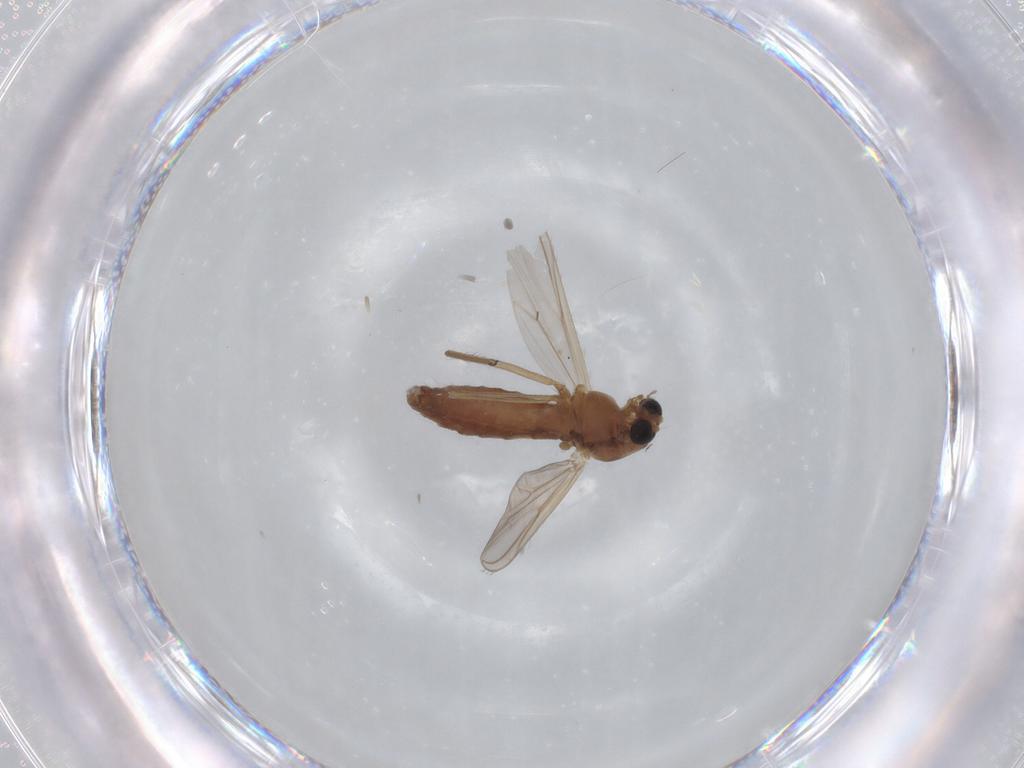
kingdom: Animalia
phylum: Arthropoda
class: Insecta
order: Diptera
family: Chironomidae
